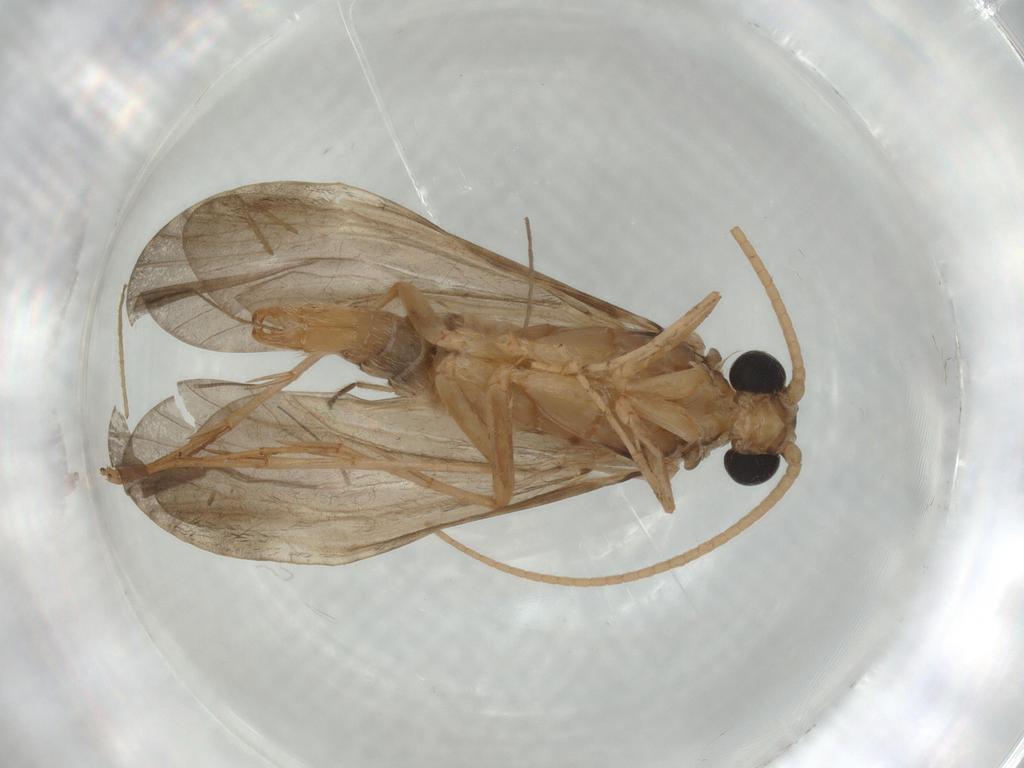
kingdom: Animalia
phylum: Arthropoda
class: Insecta
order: Trichoptera
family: Ecnomidae
